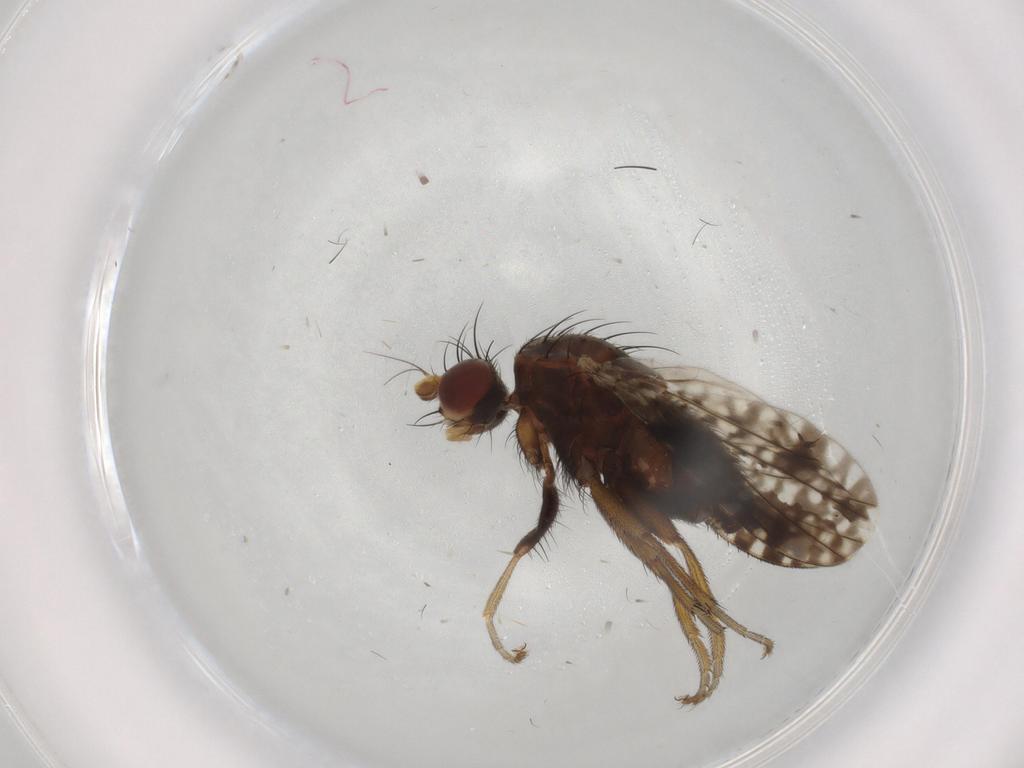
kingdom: Animalia
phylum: Arthropoda
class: Insecta
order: Diptera
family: Tephritidae
